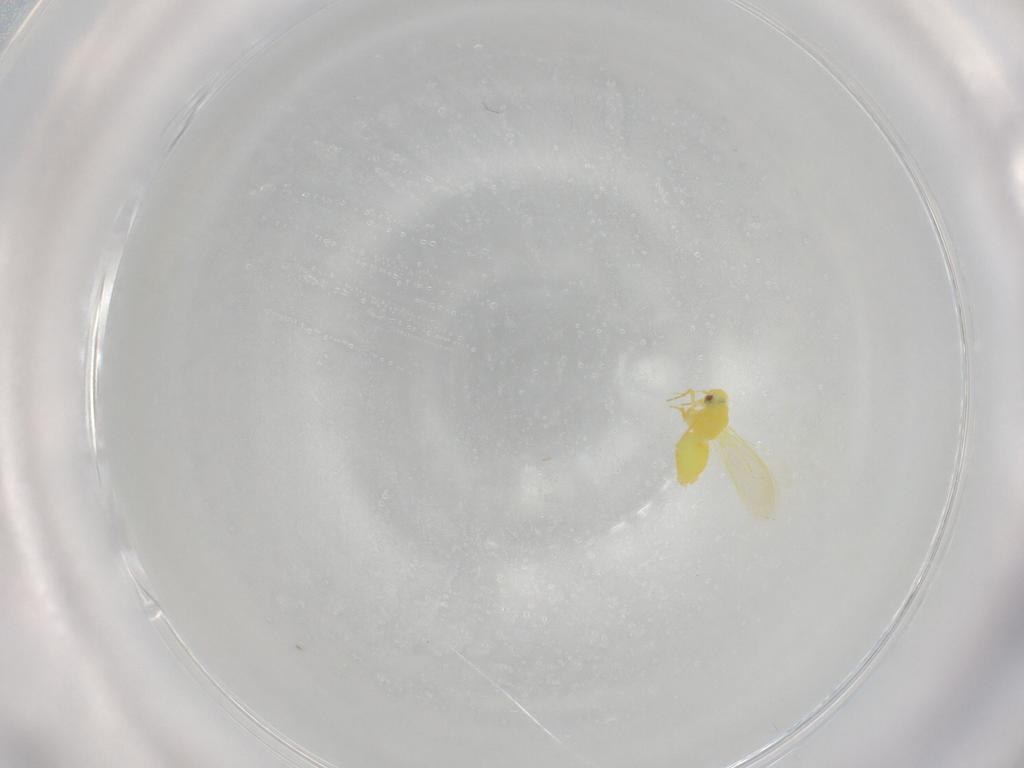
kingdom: Animalia
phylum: Arthropoda
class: Insecta
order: Hemiptera
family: Aleyrodidae
